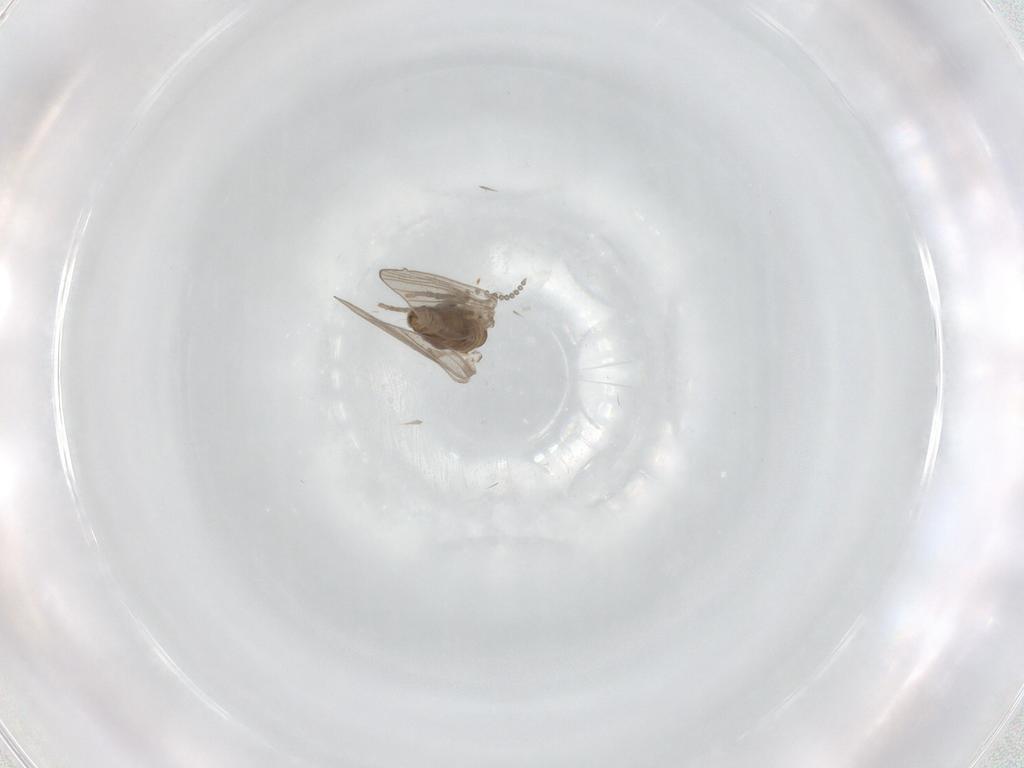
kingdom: Animalia
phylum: Arthropoda
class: Insecta
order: Diptera
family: Psychodidae
